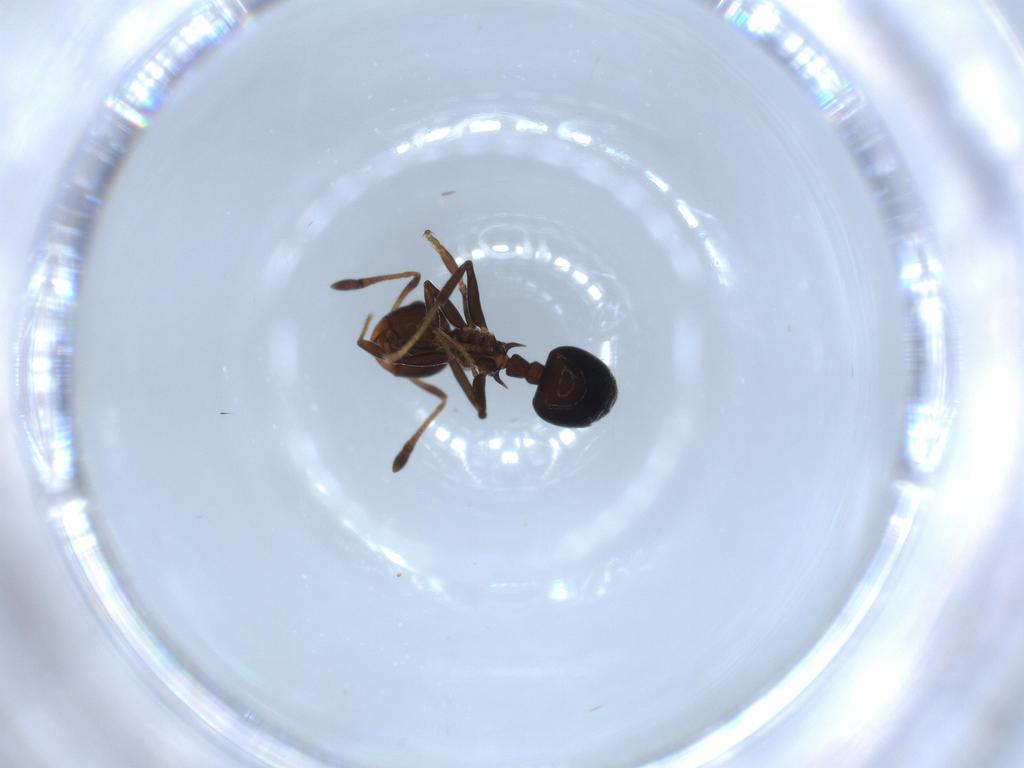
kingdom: Animalia
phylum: Arthropoda
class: Insecta
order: Hymenoptera
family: Formicidae
